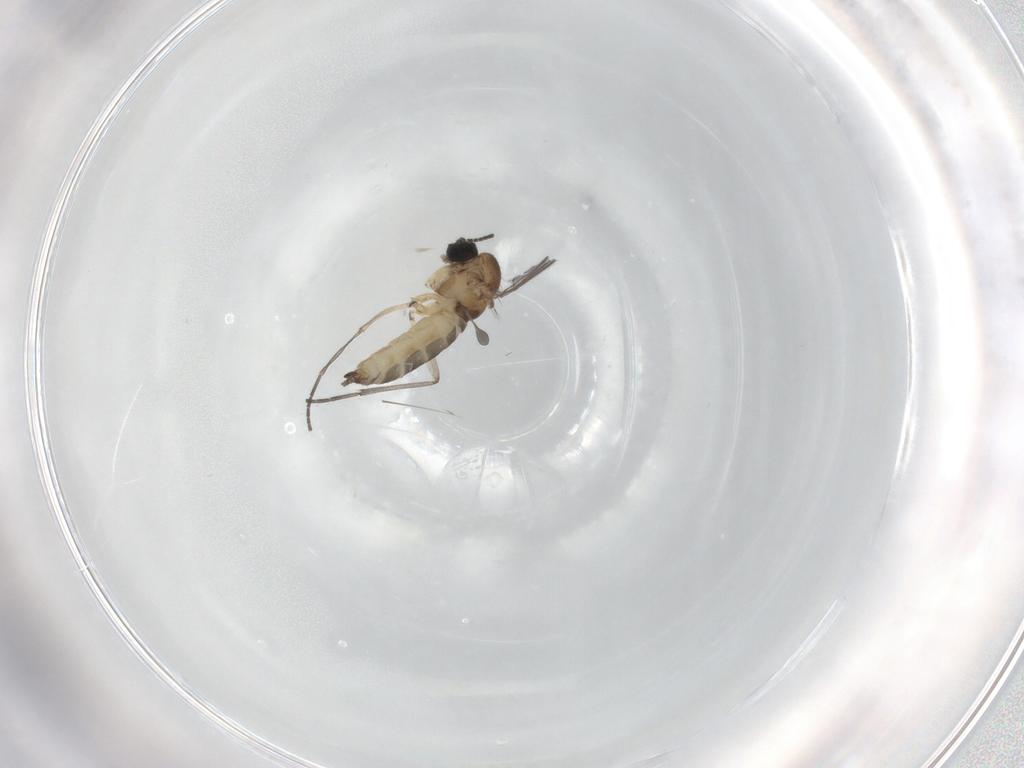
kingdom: Animalia
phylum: Arthropoda
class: Insecta
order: Diptera
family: Sciaridae
